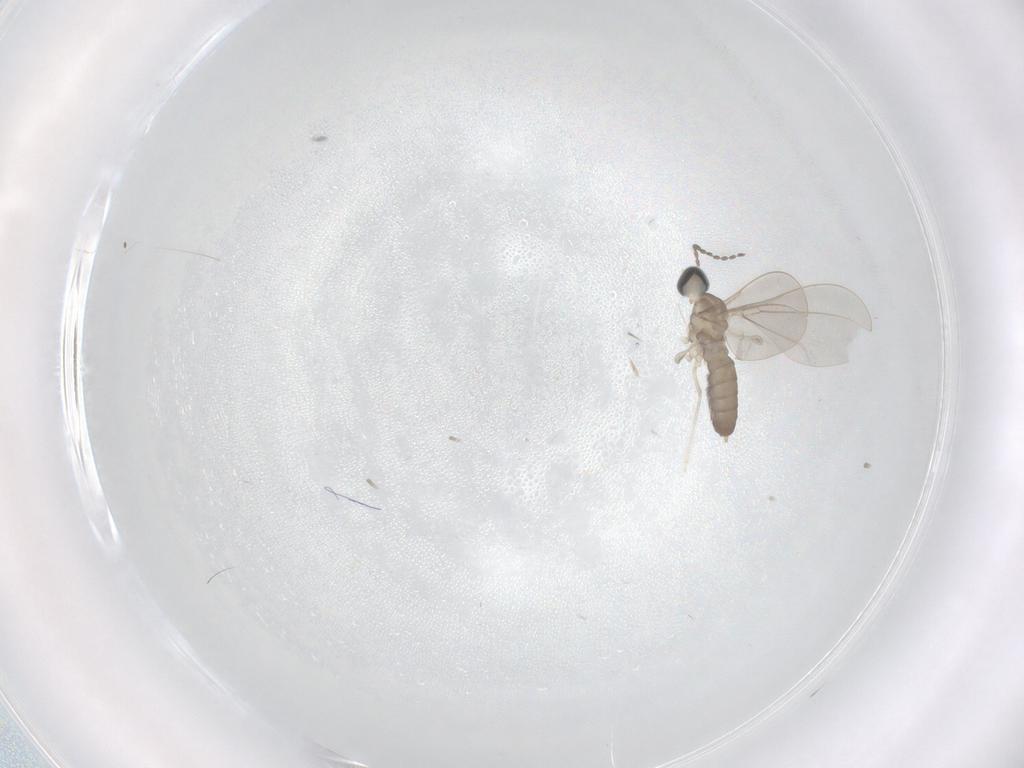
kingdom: Animalia
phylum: Arthropoda
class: Insecta
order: Diptera
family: Cecidomyiidae
